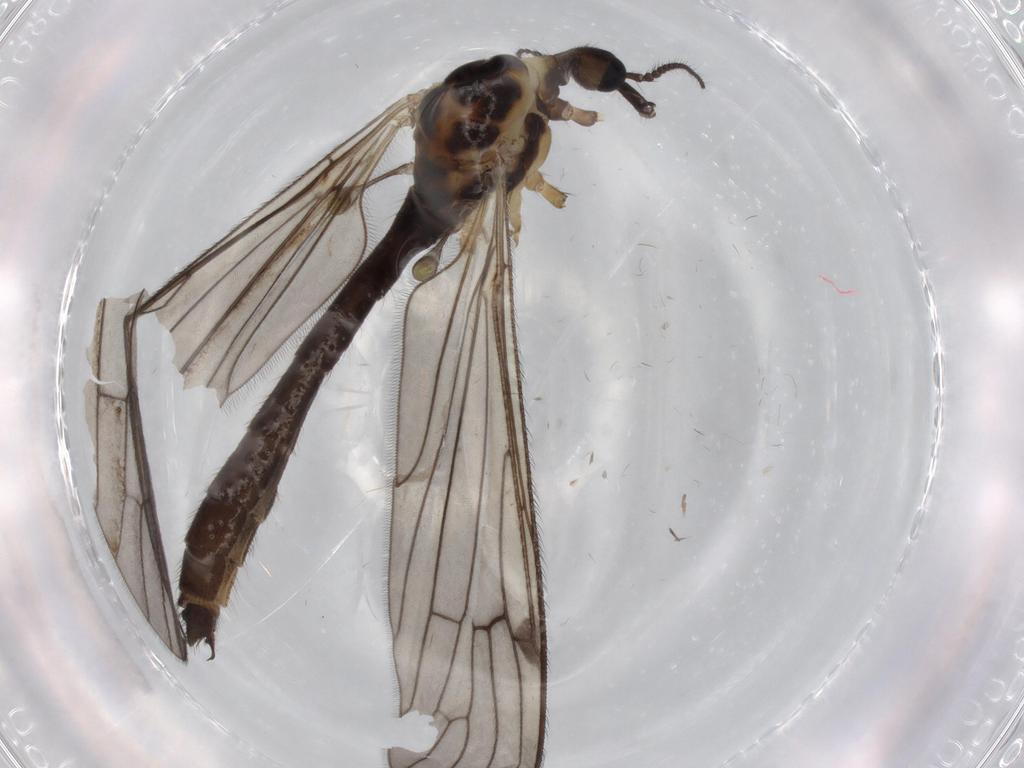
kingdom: Animalia
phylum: Arthropoda
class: Insecta
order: Diptera
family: Limoniidae
